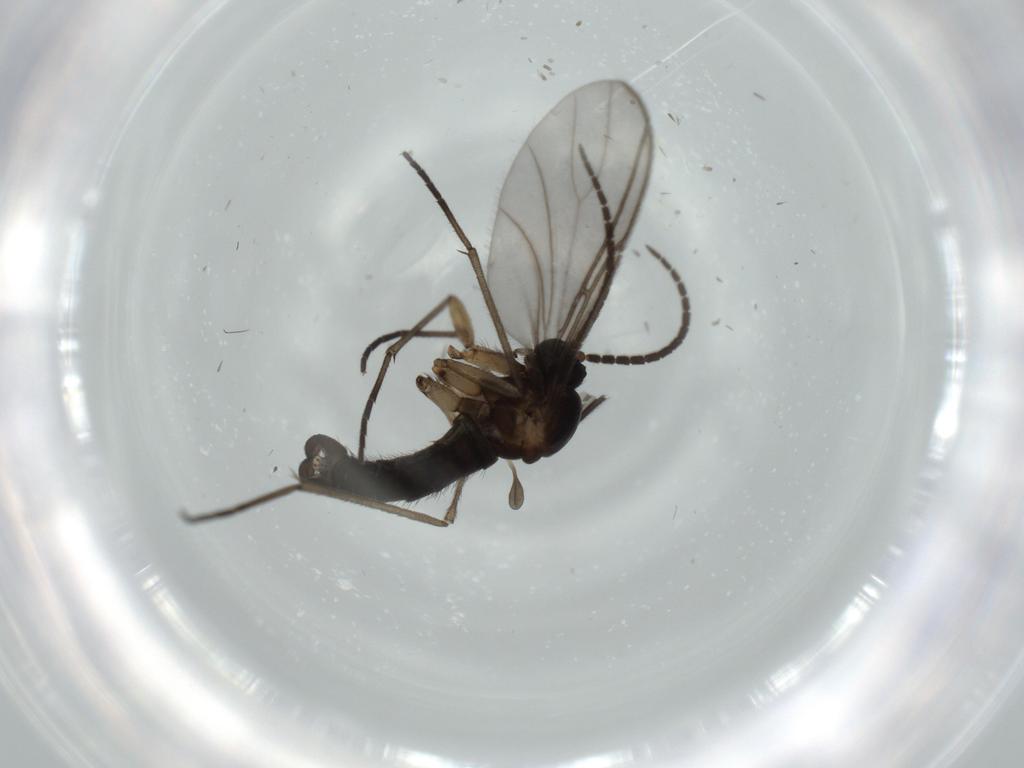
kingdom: Animalia
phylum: Arthropoda
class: Insecta
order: Diptera
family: Sciaridae
